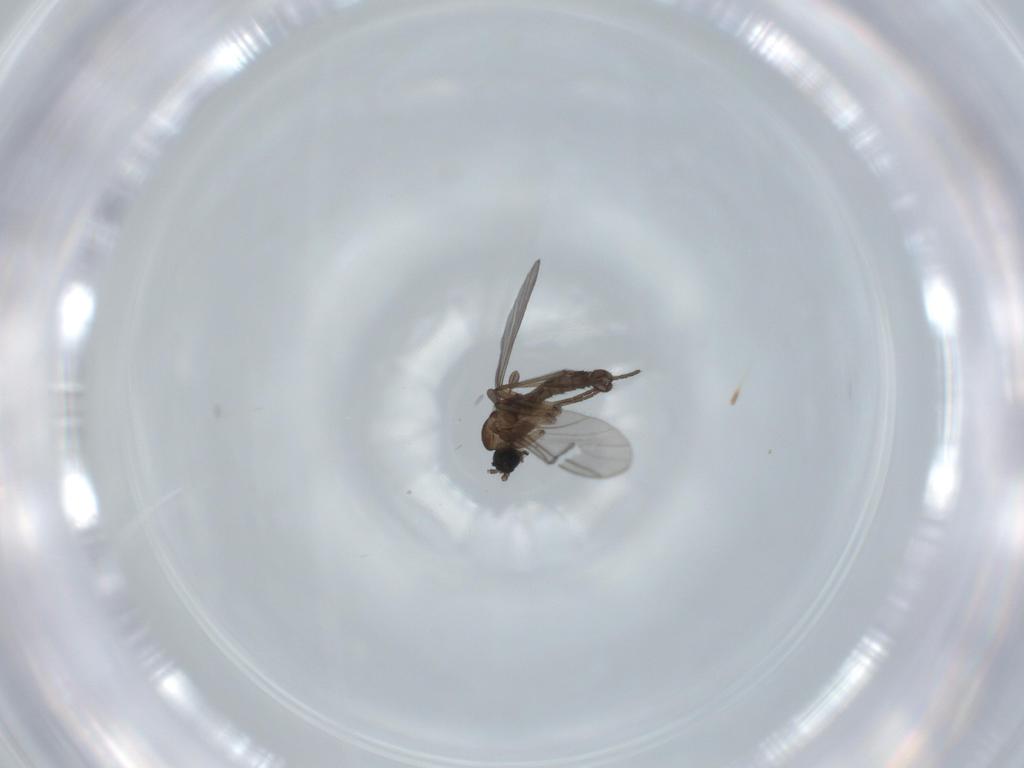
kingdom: Animalia
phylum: Arthropoda
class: Insecta
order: Diptera
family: Sciaridae
